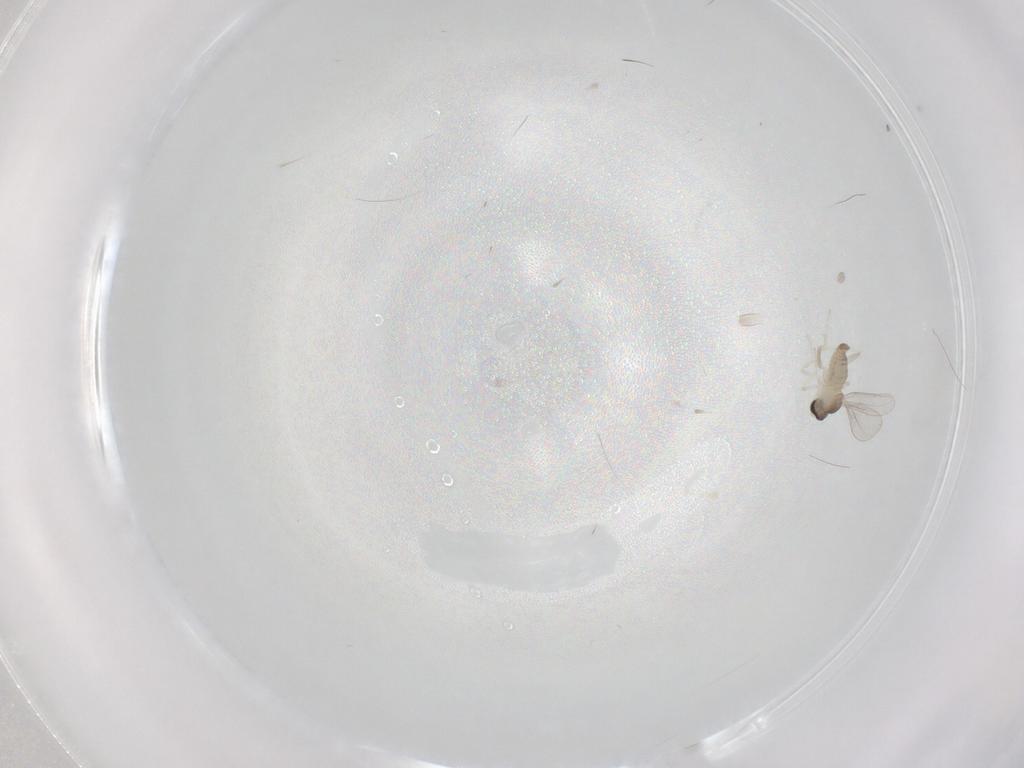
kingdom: Animalia
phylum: Arthropoda
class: Insecta
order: Diptera
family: Cecidomyiidae
